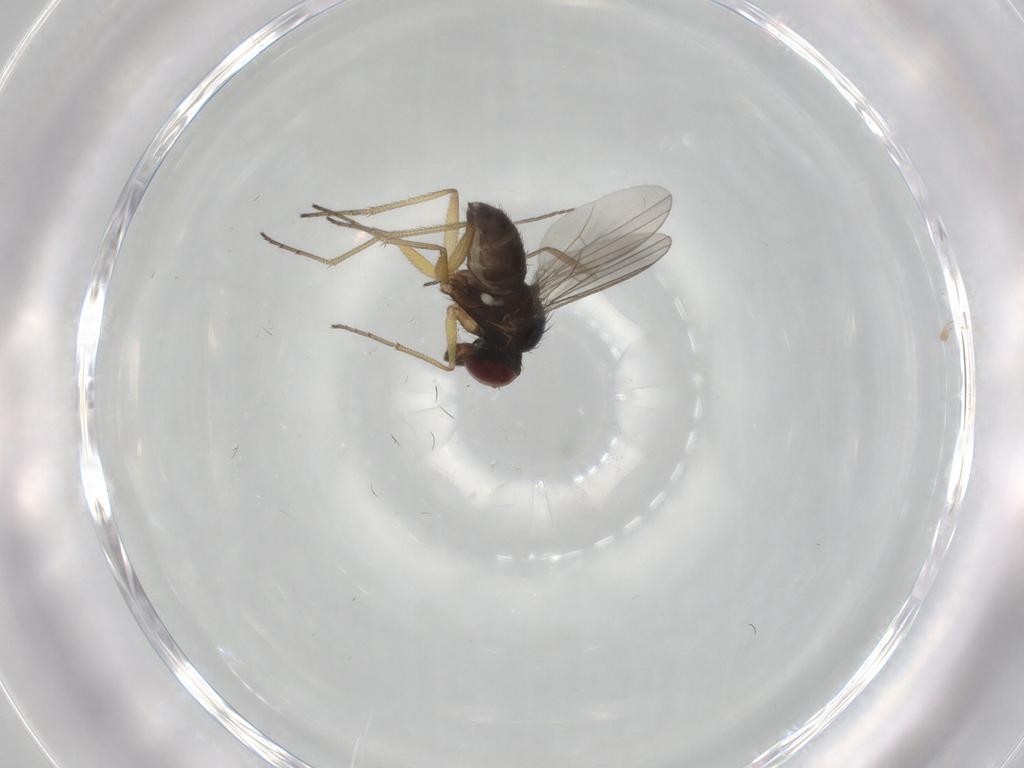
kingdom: Animalia
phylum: Arthropoda
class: Insecta
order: Diptera
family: Dolichopodidae
